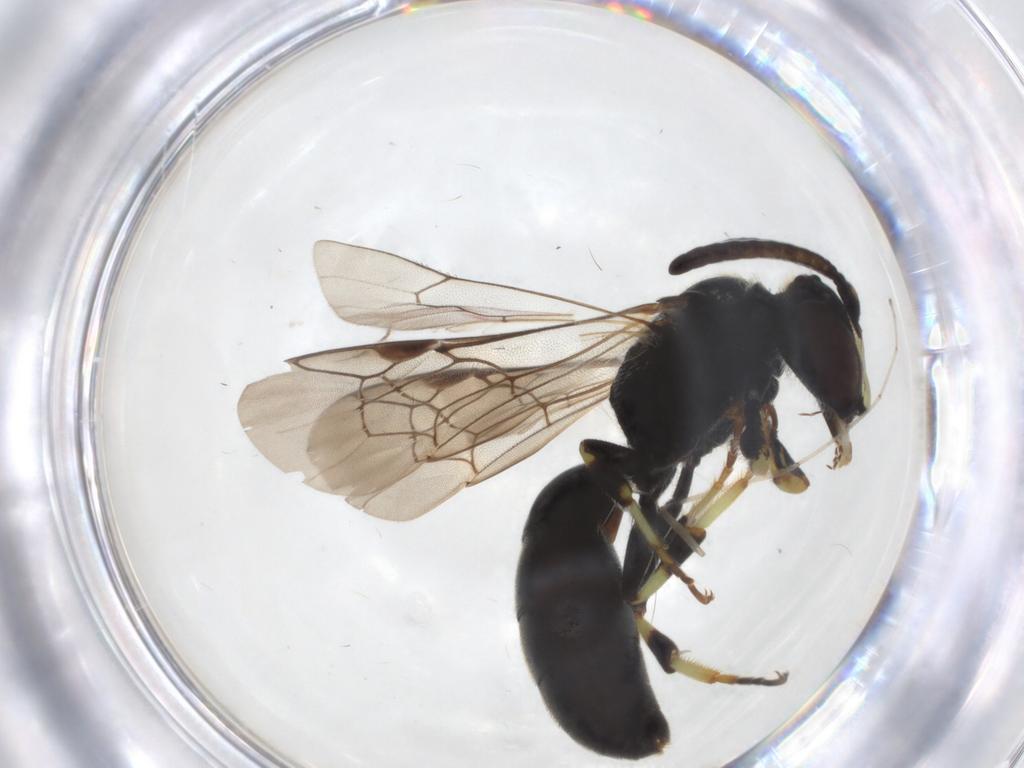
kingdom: Animalia
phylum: Arthropoda
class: Insecta
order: Hymenoptera
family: Colletidae
